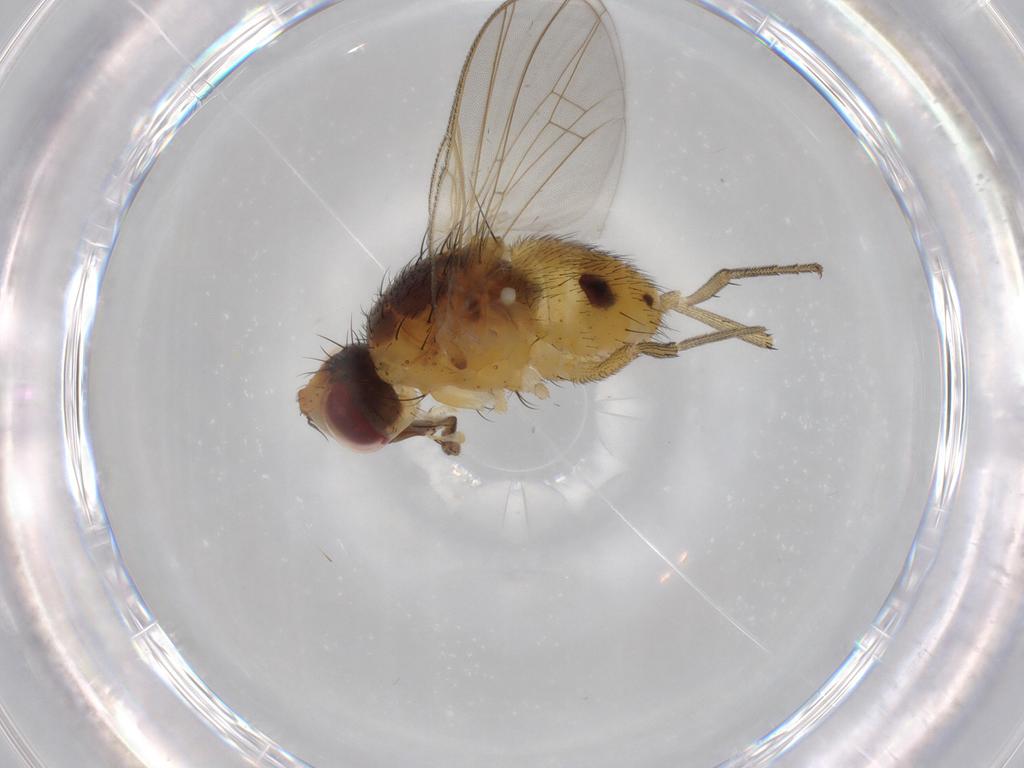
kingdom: Animalia
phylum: Arthropoda
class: Insecta
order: Diptera
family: Muscidae
